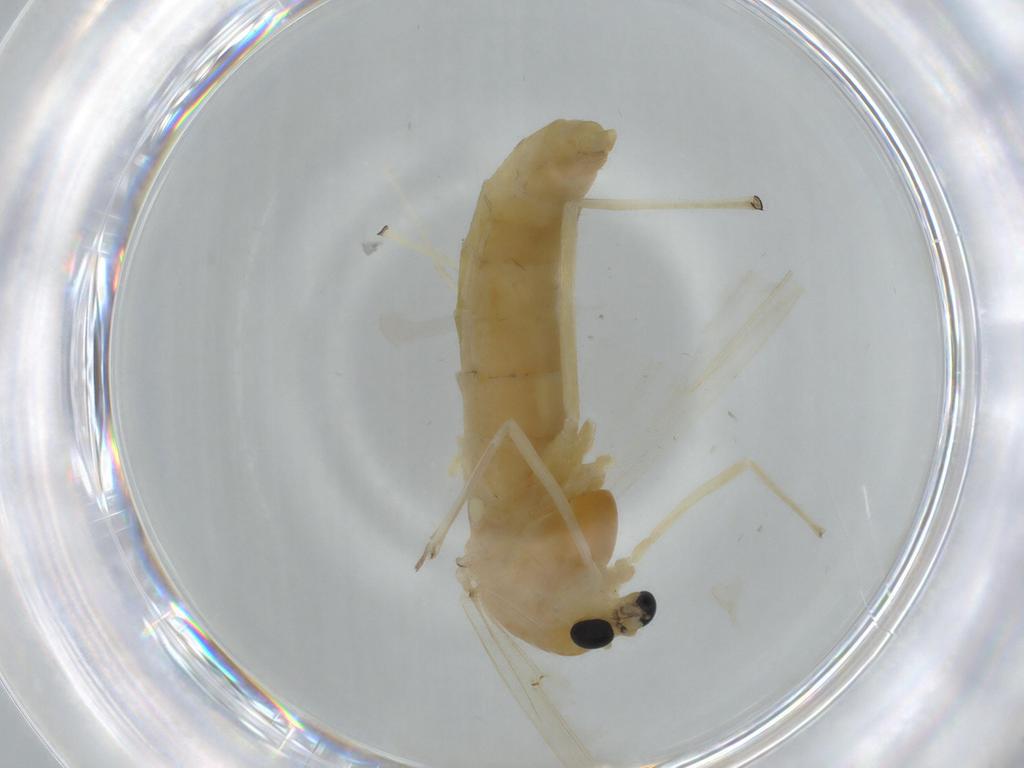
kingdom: Animalia
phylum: Arthropoda
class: Insecta
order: Diptera
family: Chironomidae
